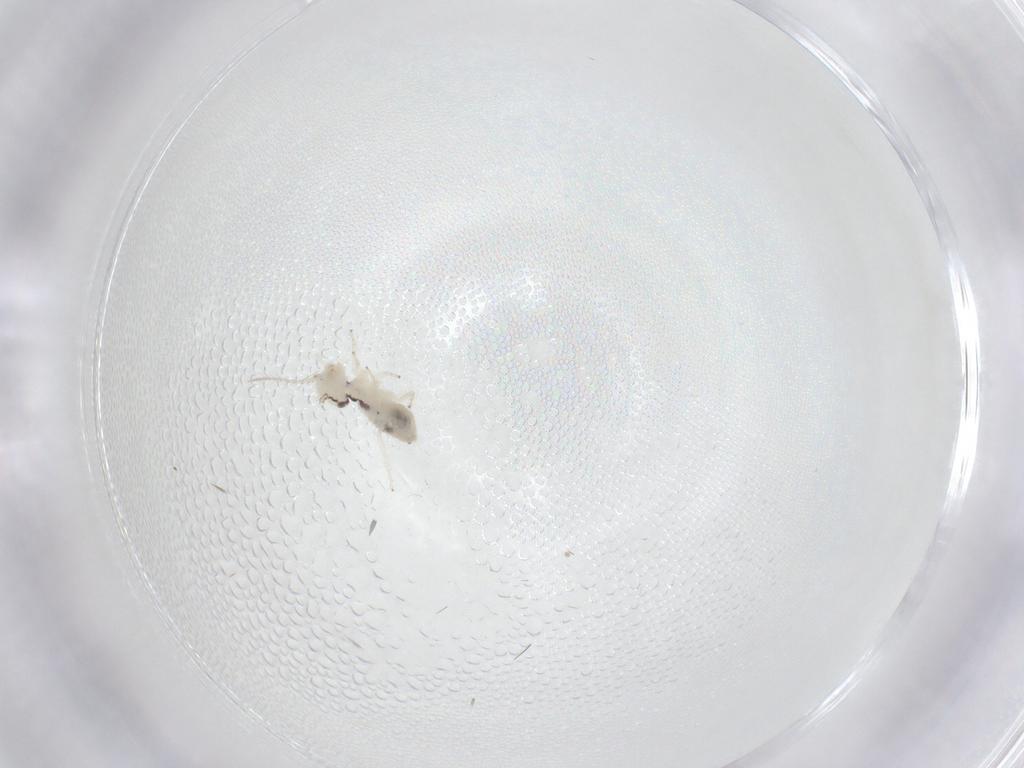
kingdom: Animalia
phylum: Arthropoda
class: Insecta
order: Psocodea
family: Pseudocaeciliidae
